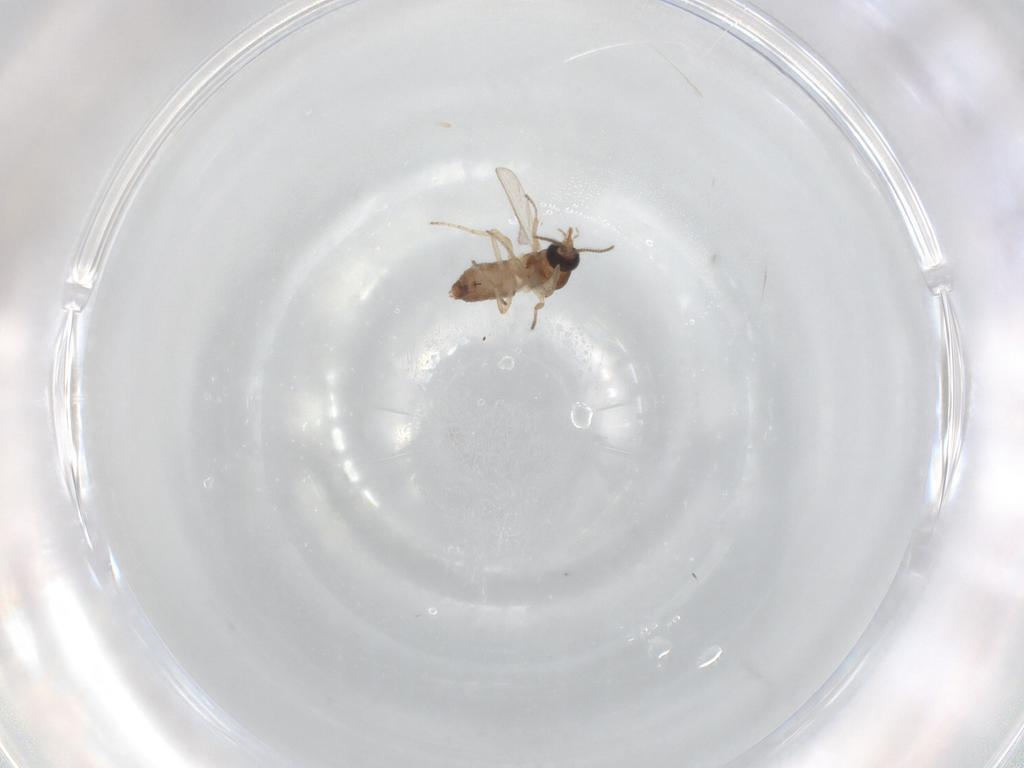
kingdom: Animalia
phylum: Arthropoda
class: Insecta
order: Diptera
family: Ceratopogonidae
